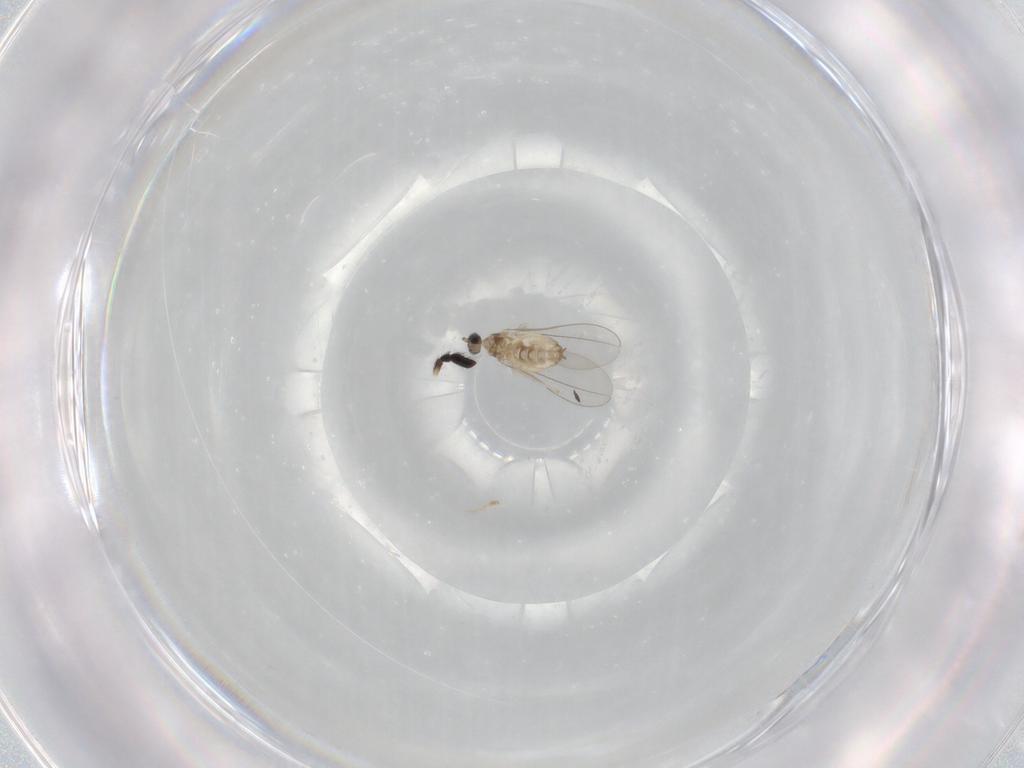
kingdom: Animalia
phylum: Arthropoda
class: Insecta
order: Diptera
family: Cecidomyiidae
